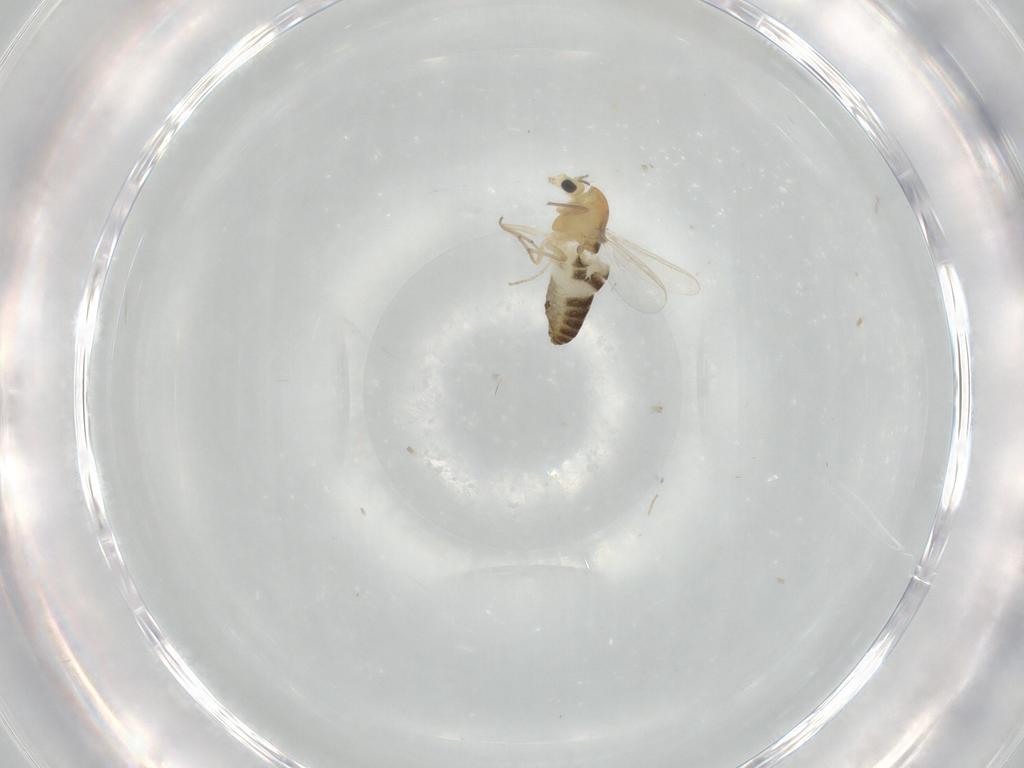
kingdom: Animalia
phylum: Arthropoda
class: Insecta
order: Diptera
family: Chironomidae
